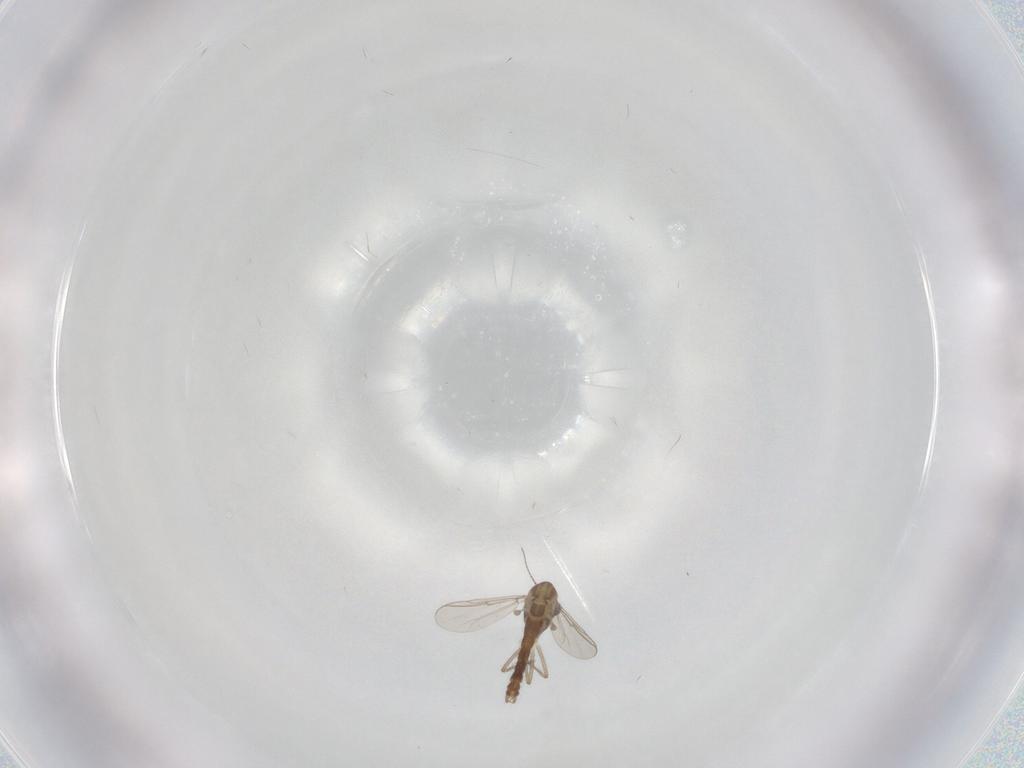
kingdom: Animalia
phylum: Arthropoda
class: Insecta
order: Diptera
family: Chironomidae
